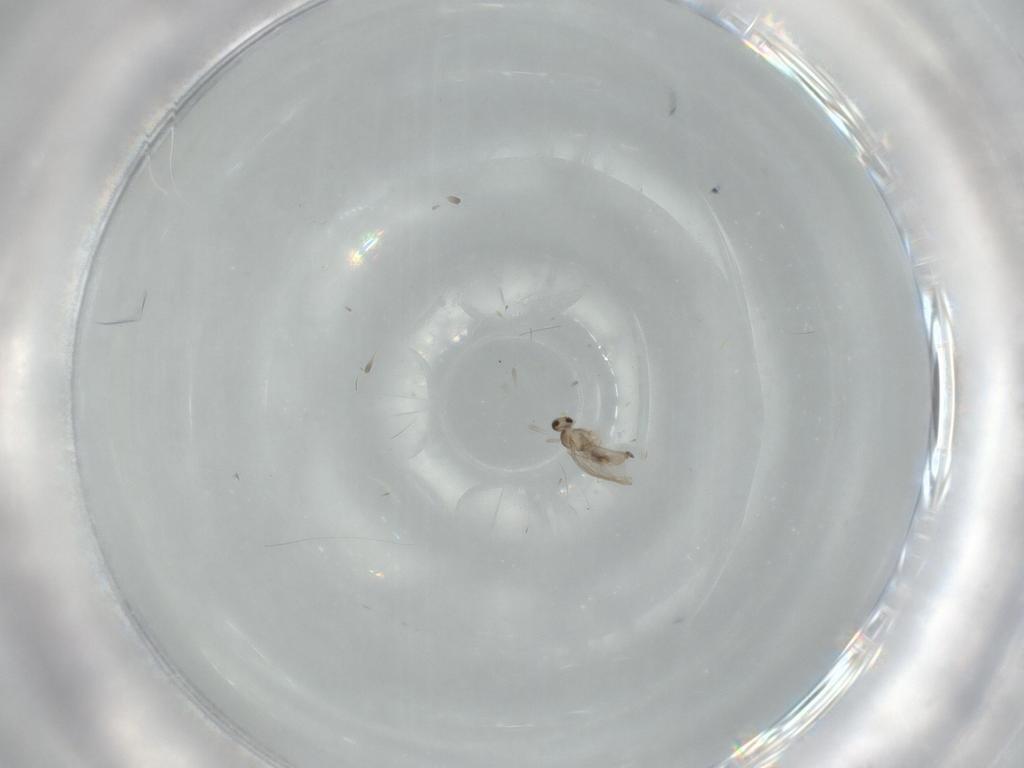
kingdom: Animalia
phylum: Arthropoda
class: Insecta
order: Diptera
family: Cecidomyiidae
